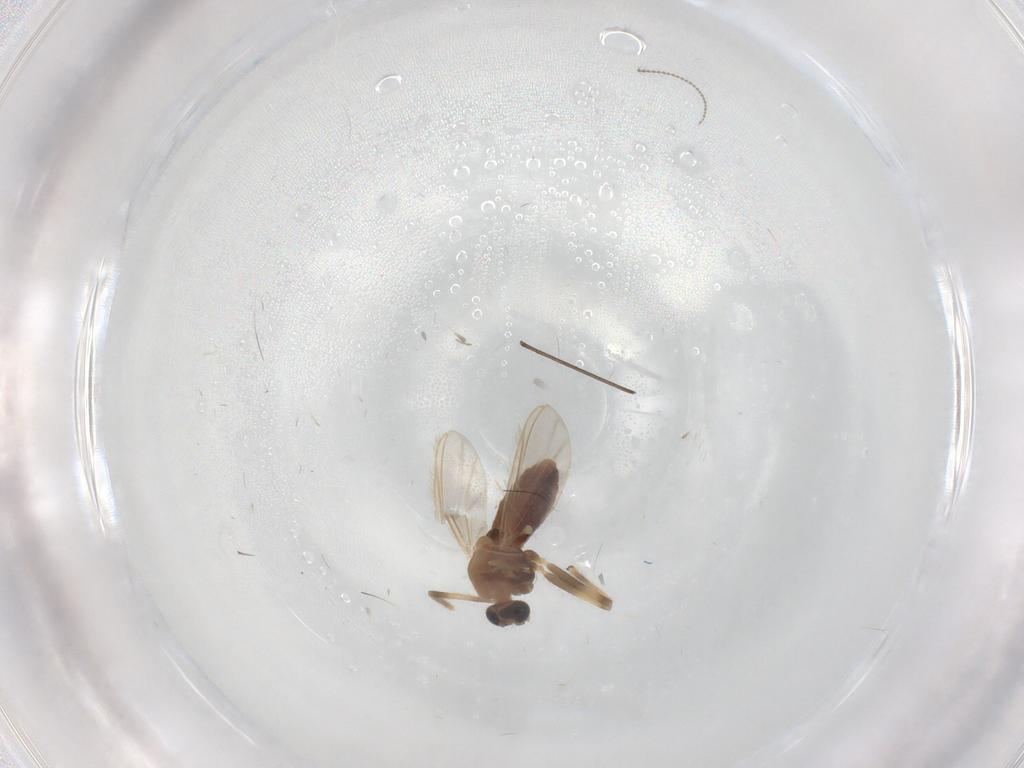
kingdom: Animalia
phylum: Arthropoda
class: Insecta
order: Diptera
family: Chironomidae
